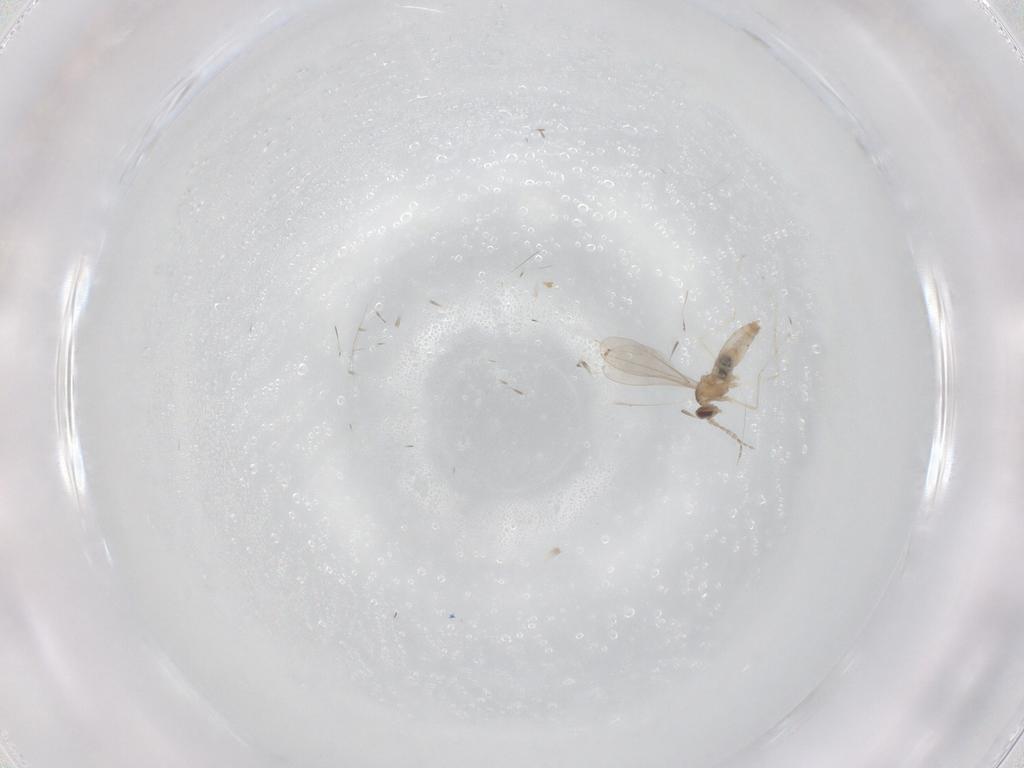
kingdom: Animalia
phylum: Arthropoda
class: Insecta
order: Diptera
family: Cecidomyiidae
